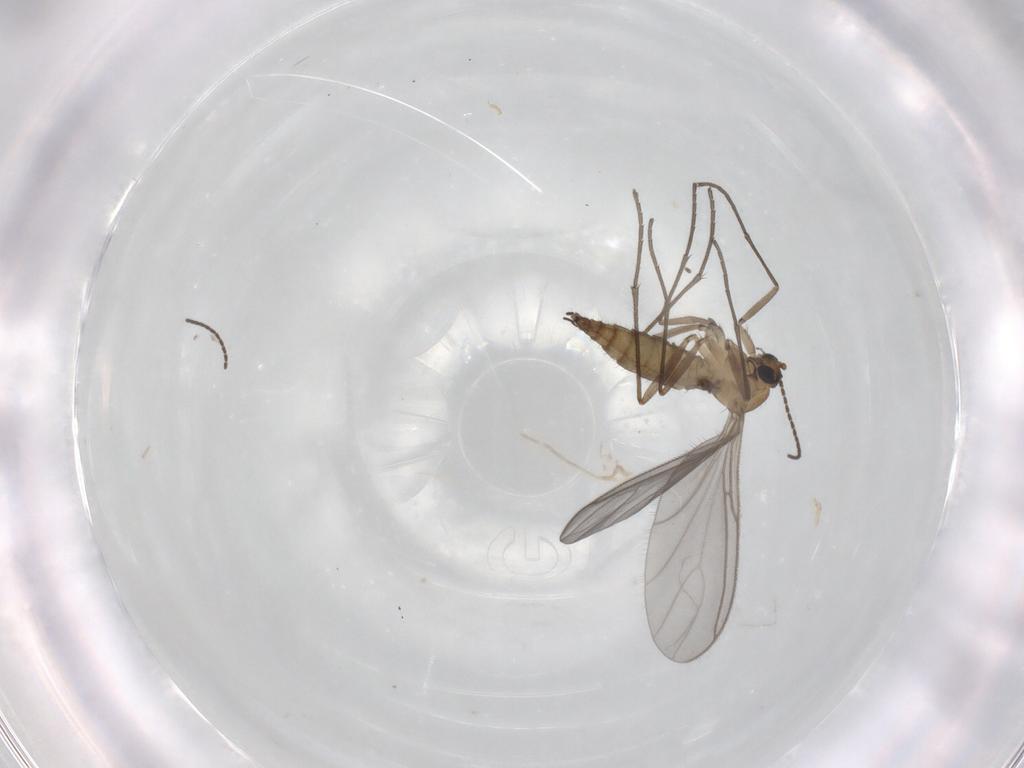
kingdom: Animalia
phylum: Arthropoda
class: Insecta
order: Diptera
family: Sciaridae
